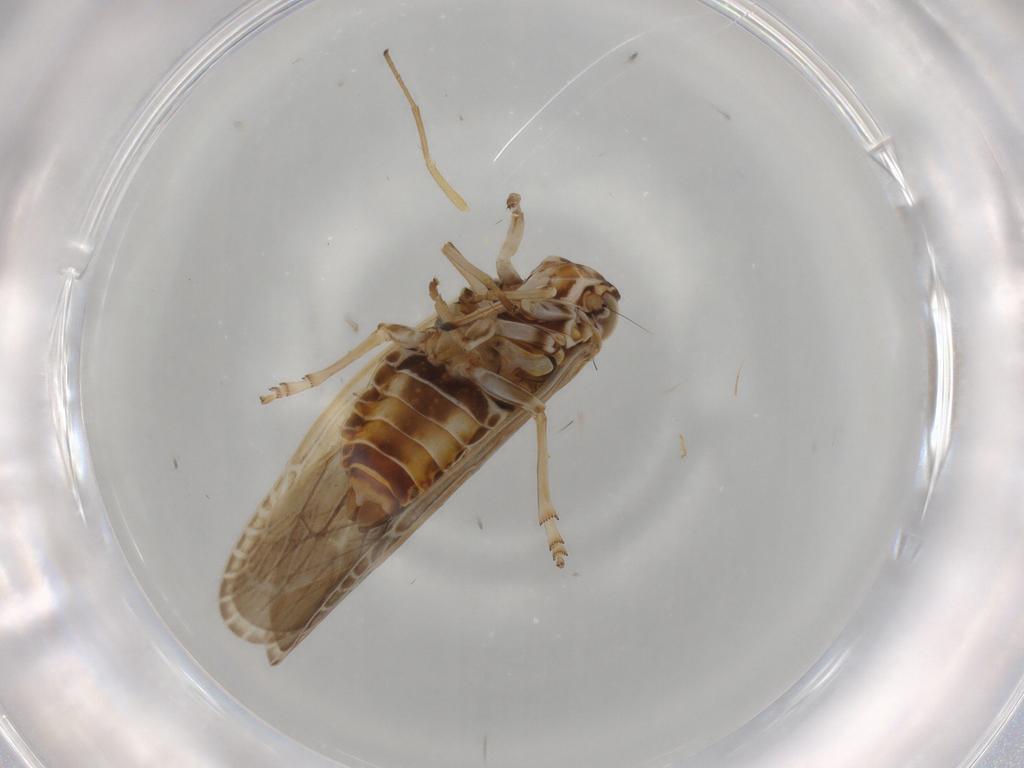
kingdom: Animalia
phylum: Arthropoda
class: Insecta
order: Hemiptera
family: Achilidae
